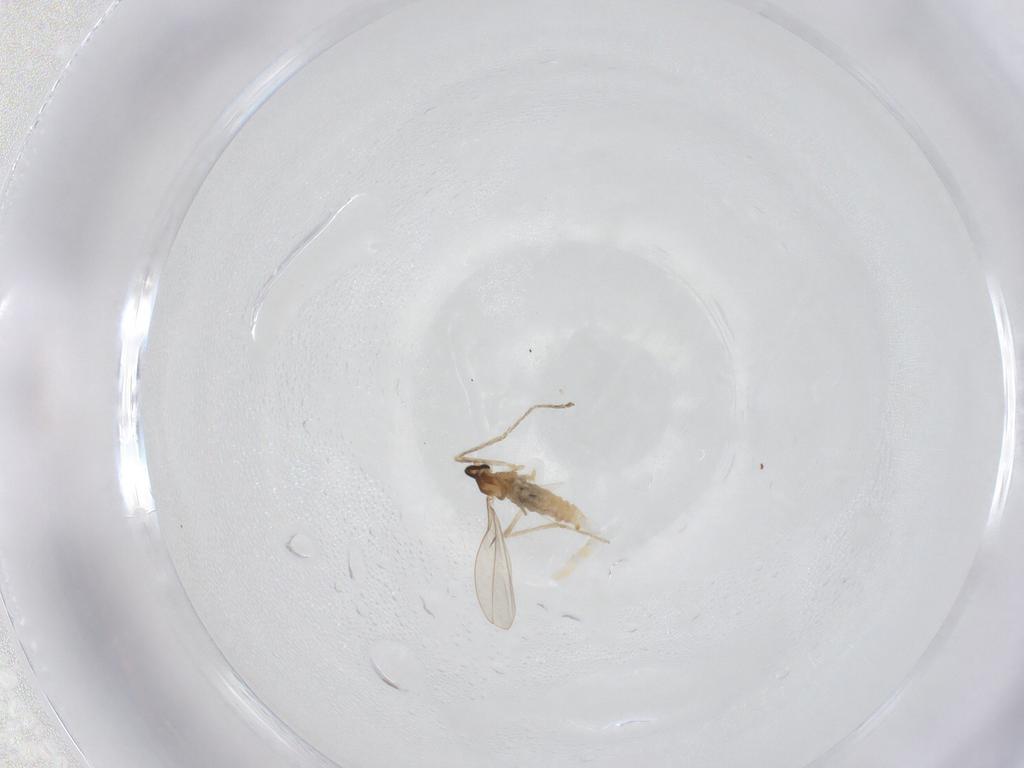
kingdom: Animalia
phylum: Arthropoda
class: Insecta
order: Diptera
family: Cecidomyiidae
